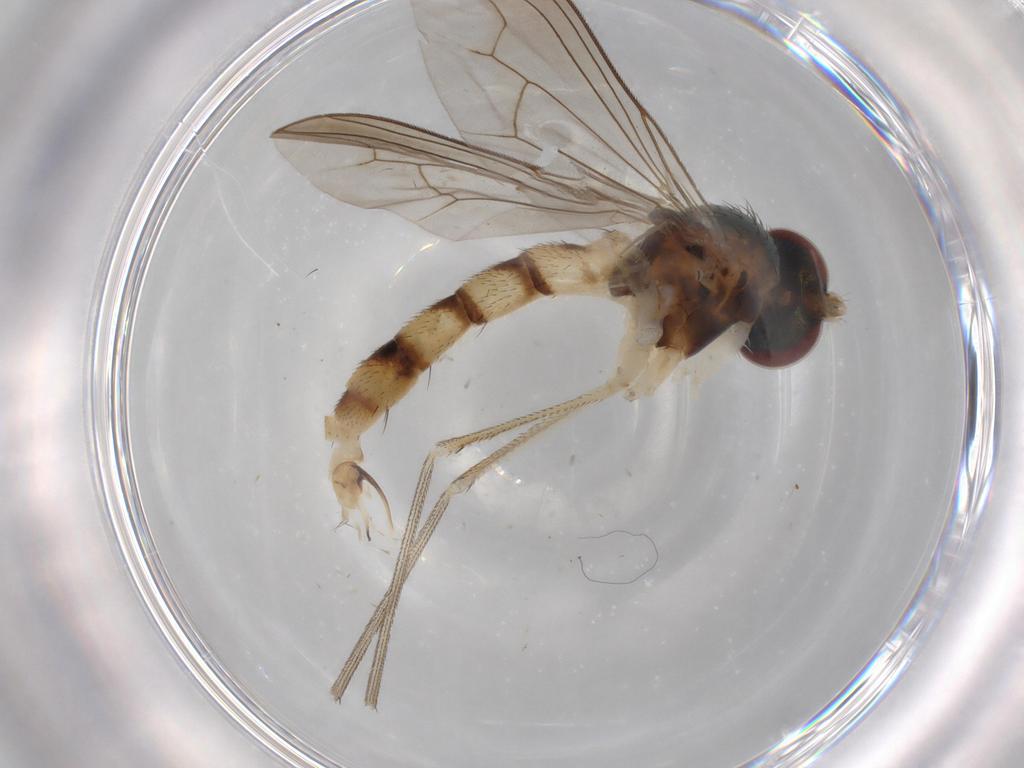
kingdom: Animalia
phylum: Arthropoda
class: Insecta
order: Diptera
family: Dolichopodidae
